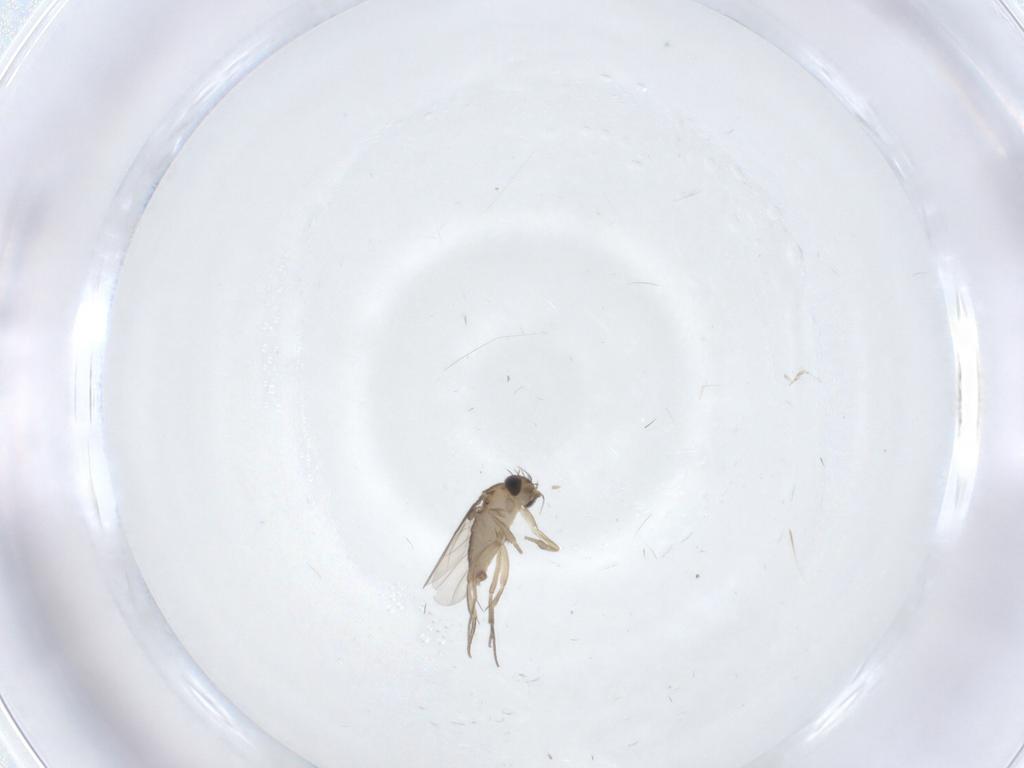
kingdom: Animalia
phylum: Arthropoda
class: Insecta
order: Diptera
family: Phoridae
